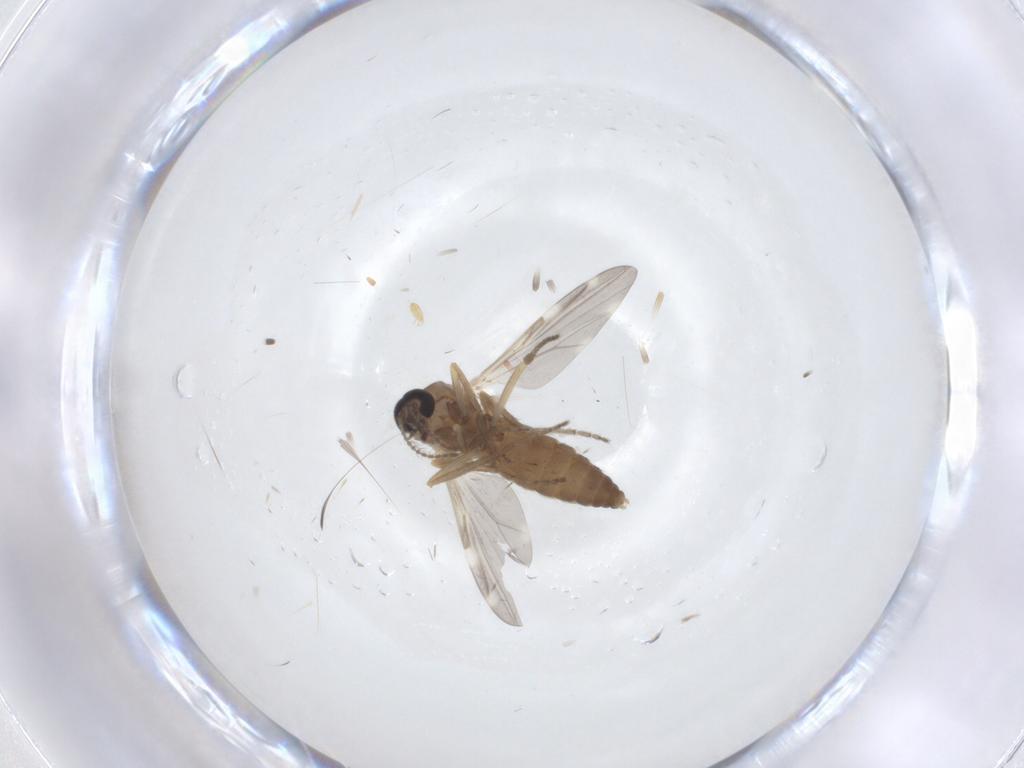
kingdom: Animalia
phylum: Arthropoda
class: Insecta
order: Diptera
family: Ceratopogonidae
